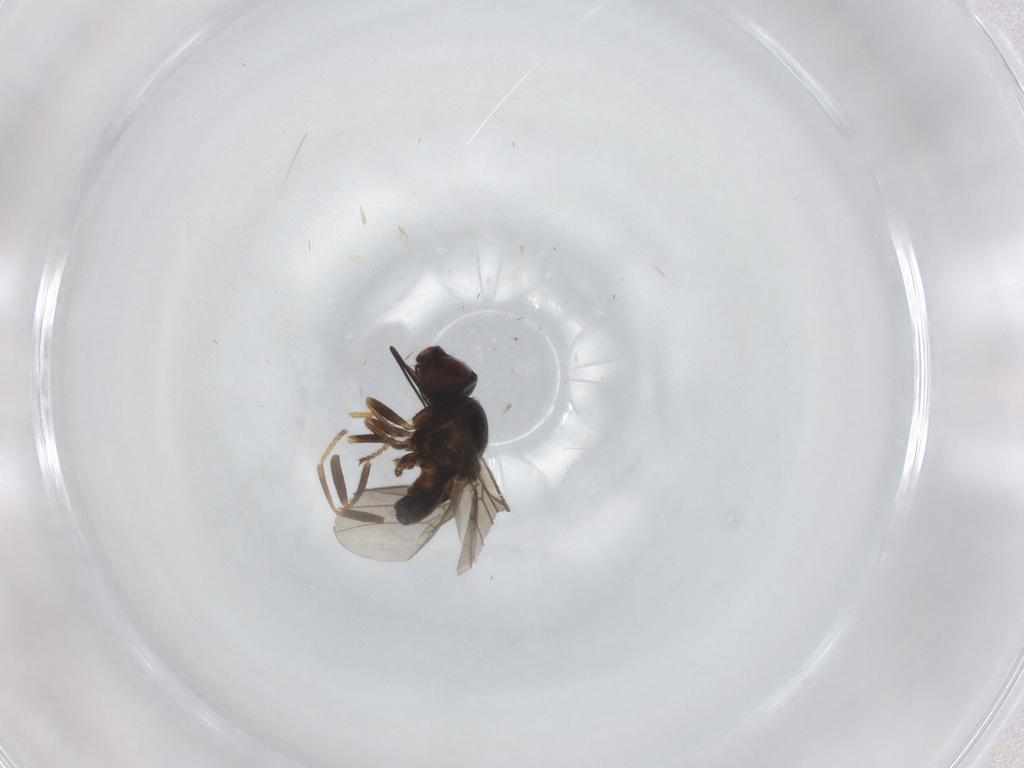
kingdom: Animalia
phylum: Arthropoda
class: Insecta
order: Diptera
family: Chloropidae
